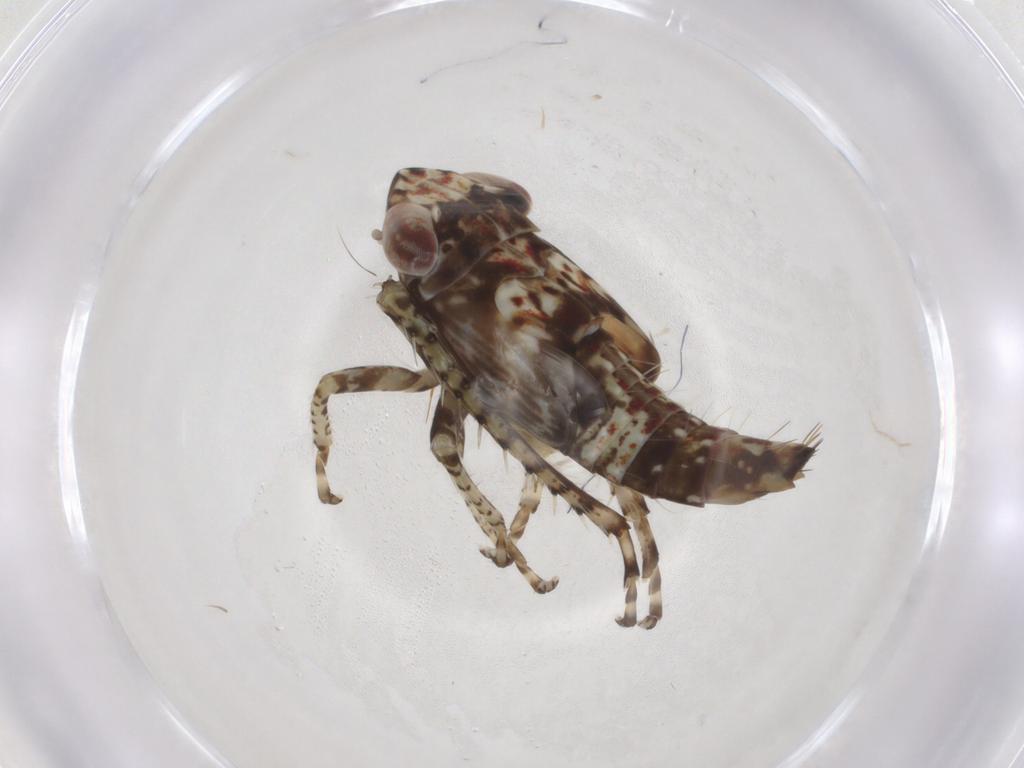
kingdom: Animalia
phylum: Arthropoda
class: Insecta
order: Hemiptera
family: Cicadellidae
